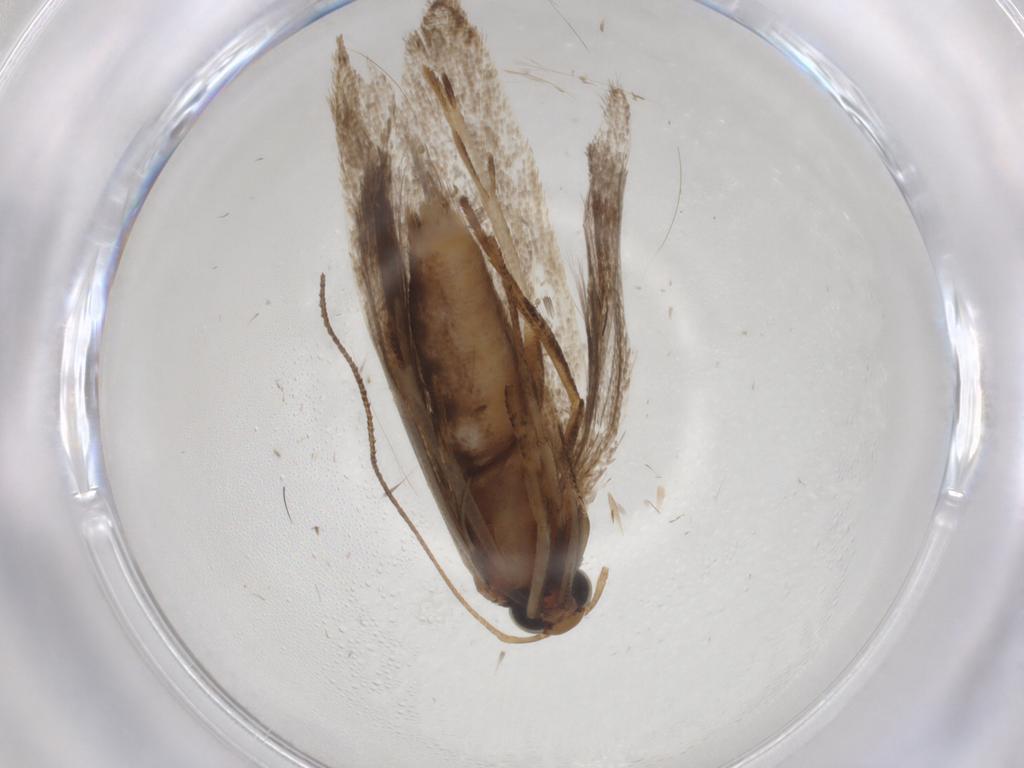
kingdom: Animalia
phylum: Arthropoda
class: Insecta
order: Lepidoptera
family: Gelechiidae
